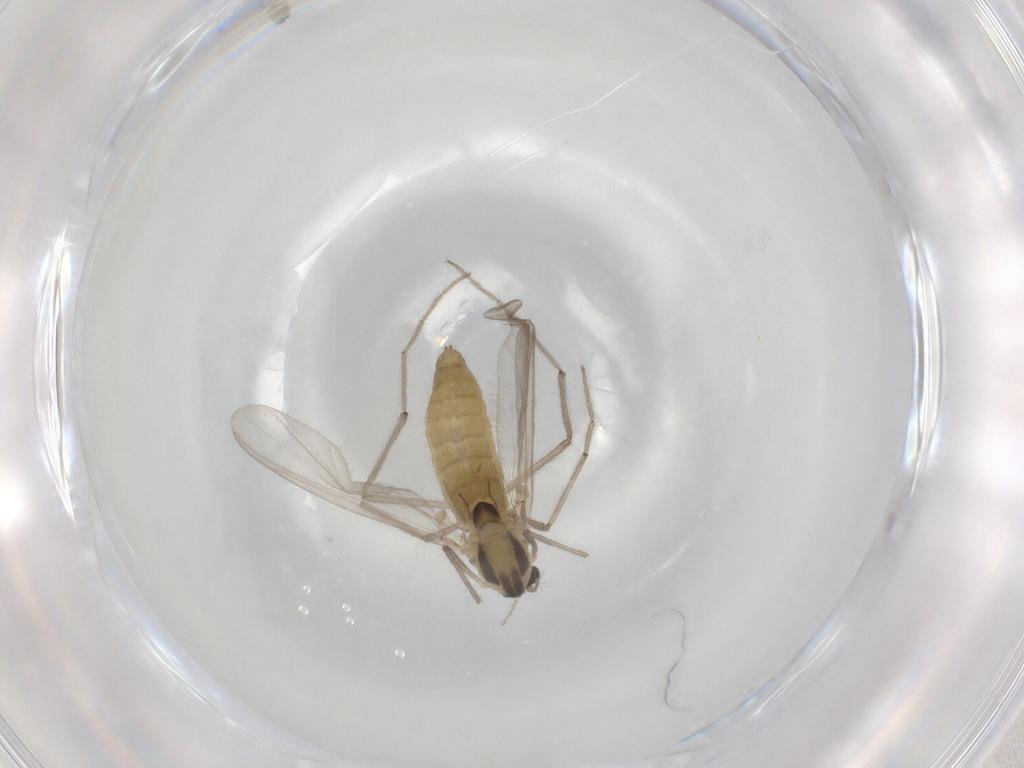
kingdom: Animalia
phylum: Arthropoda
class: Insecta
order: Diptera
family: Chironomidae
